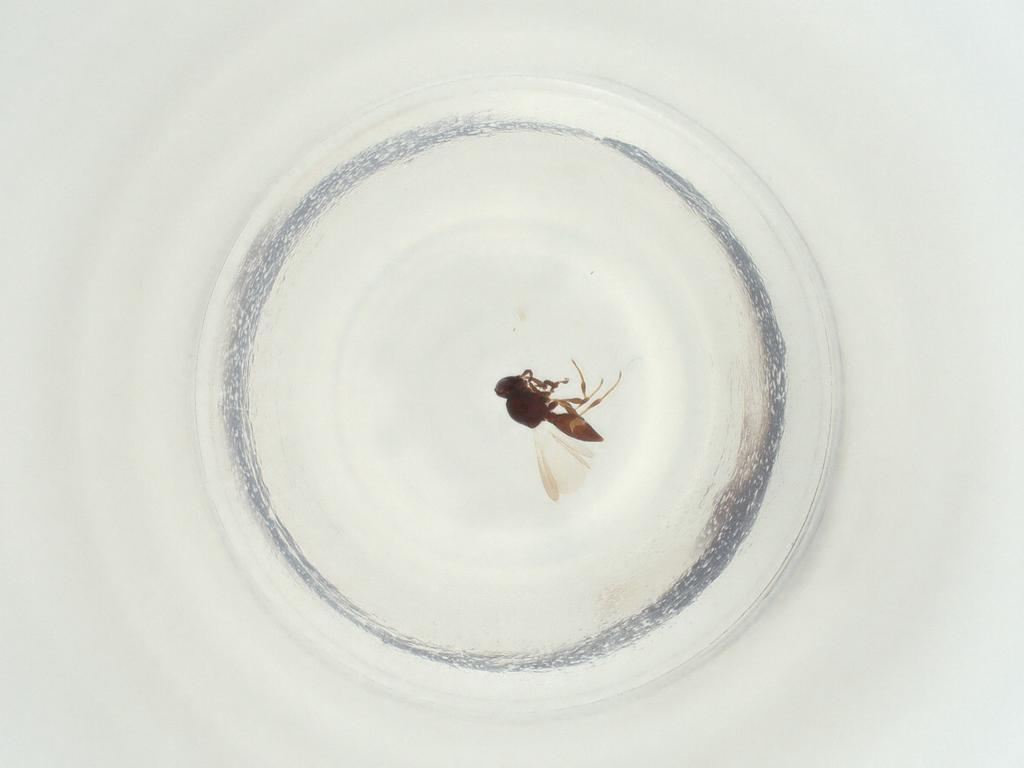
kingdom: Animalia
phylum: Arthropoda
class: Insecta
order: Hymenoptera
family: Platygastridae
